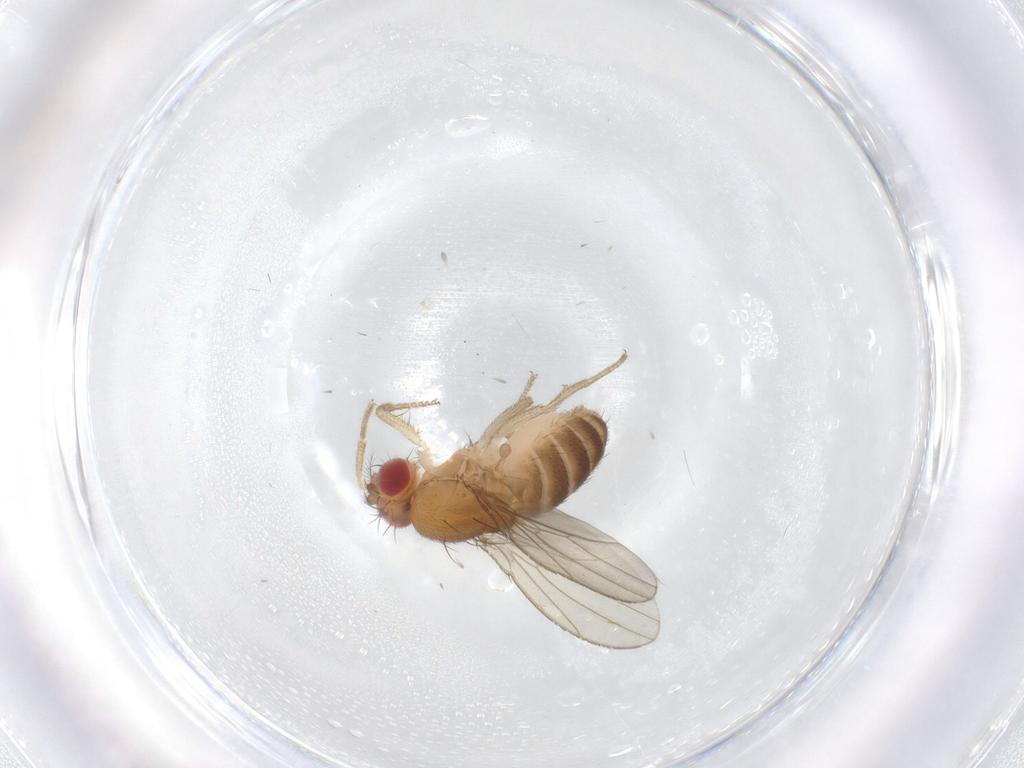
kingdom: Animalia
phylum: Arthropoda
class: Insecta
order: Diptera
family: Drosophilidae
